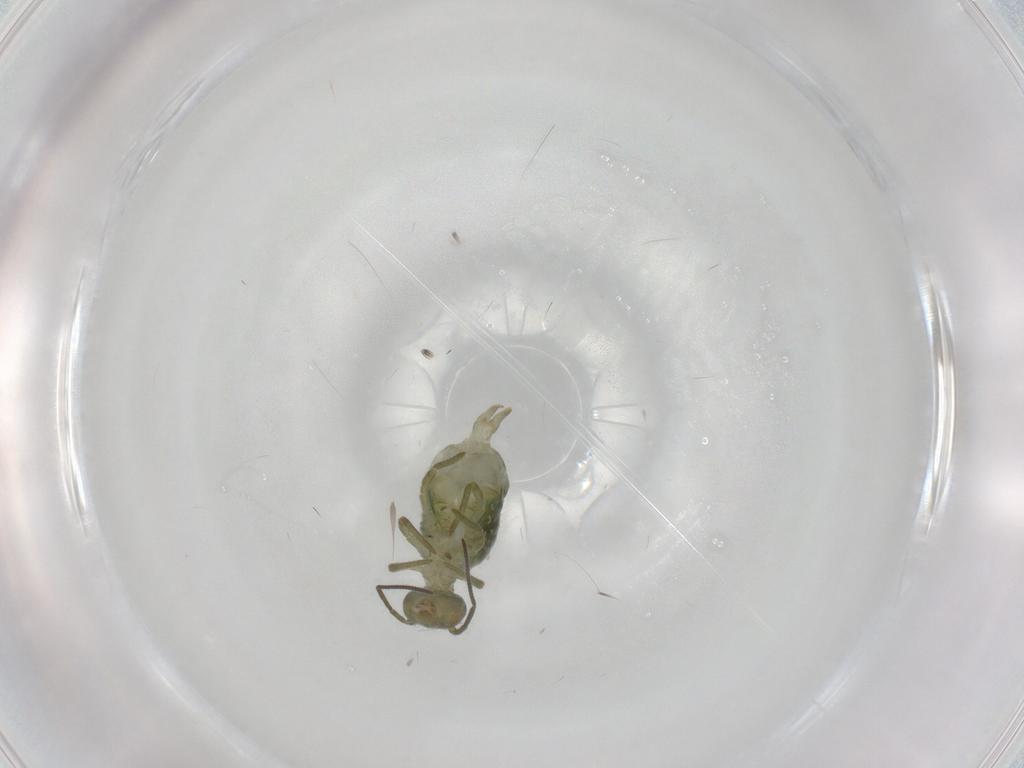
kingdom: Animalia
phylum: Arthropoda
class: Collembola
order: Symphypleona
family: Sminthuridae
